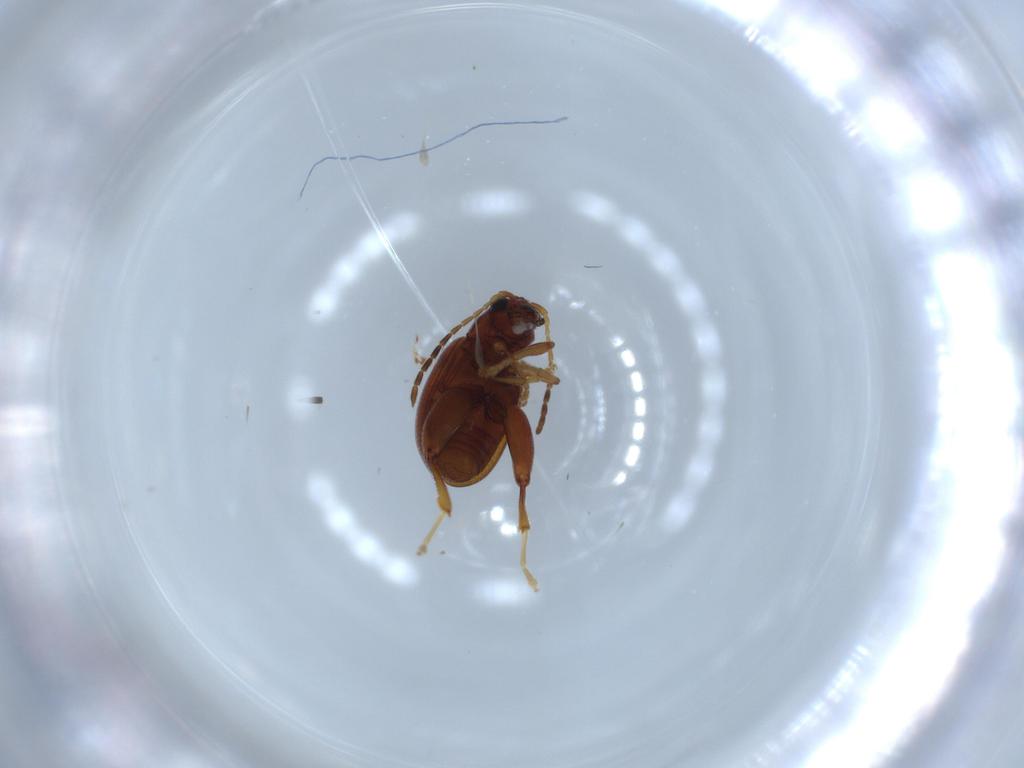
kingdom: Animalia
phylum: Arthropoda
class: Insecta
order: Coleoptera
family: Chrysomelidae
